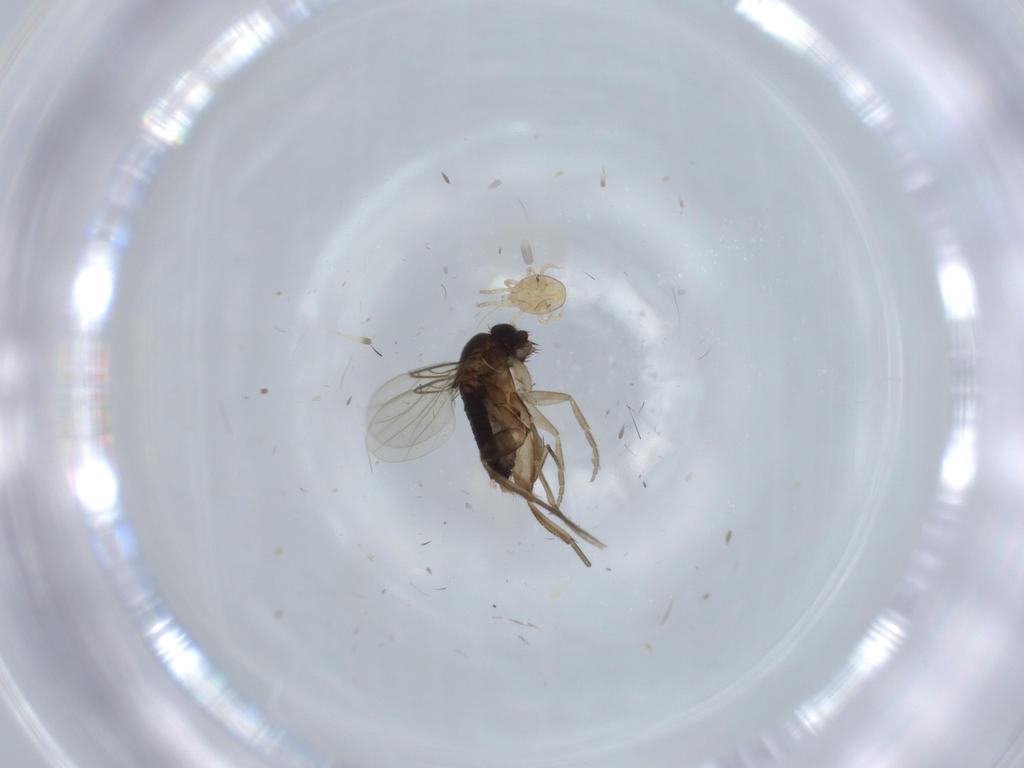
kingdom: Animalia
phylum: Arthropoda
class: Insecta
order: Diptera
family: Phoridae
